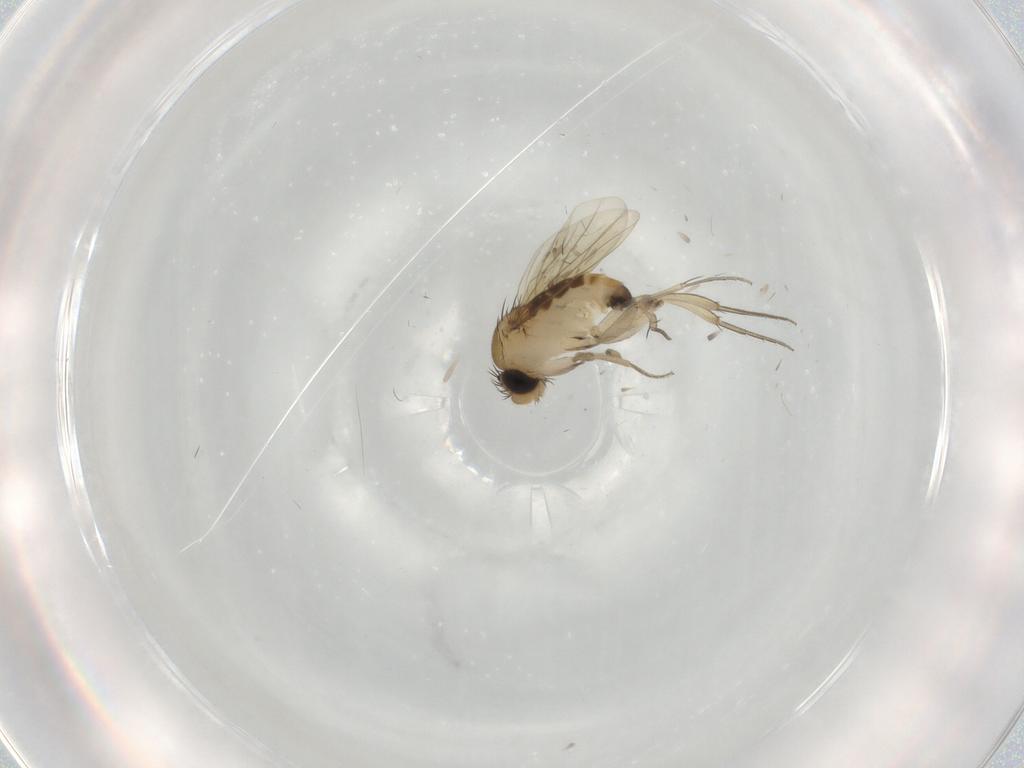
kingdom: Animalia
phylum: Arthropoda
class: Insecta
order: Diptera
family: Phoridae
